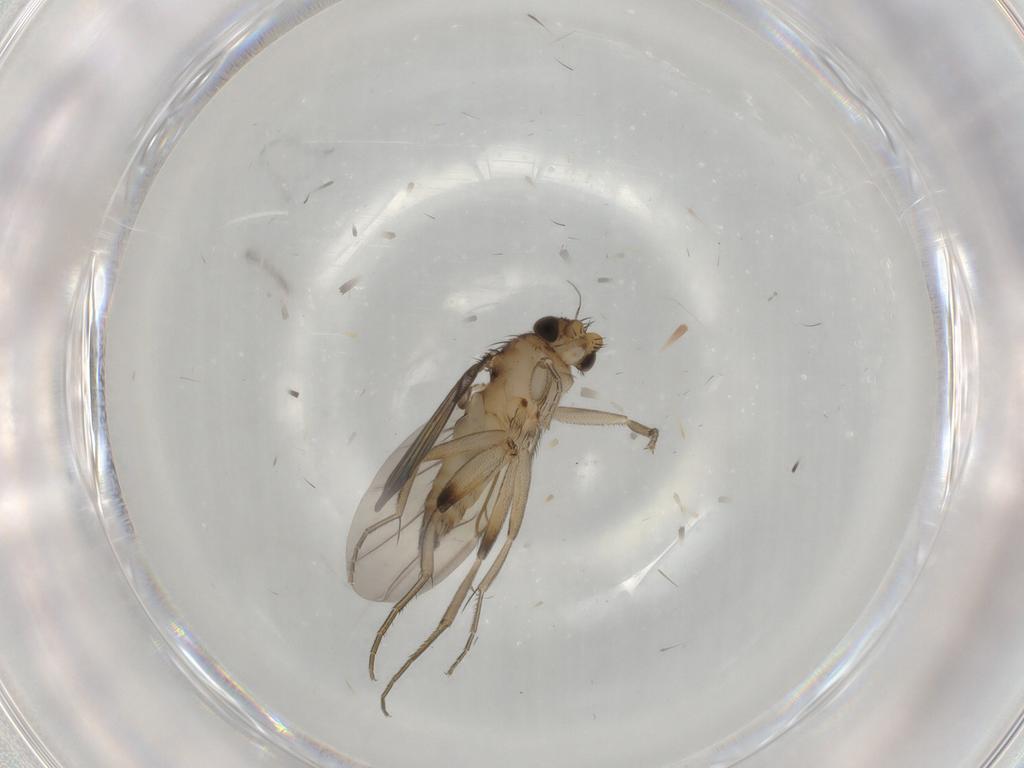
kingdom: Animalia
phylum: Arthropoda
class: Insecta
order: Diptera
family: Phoridae
